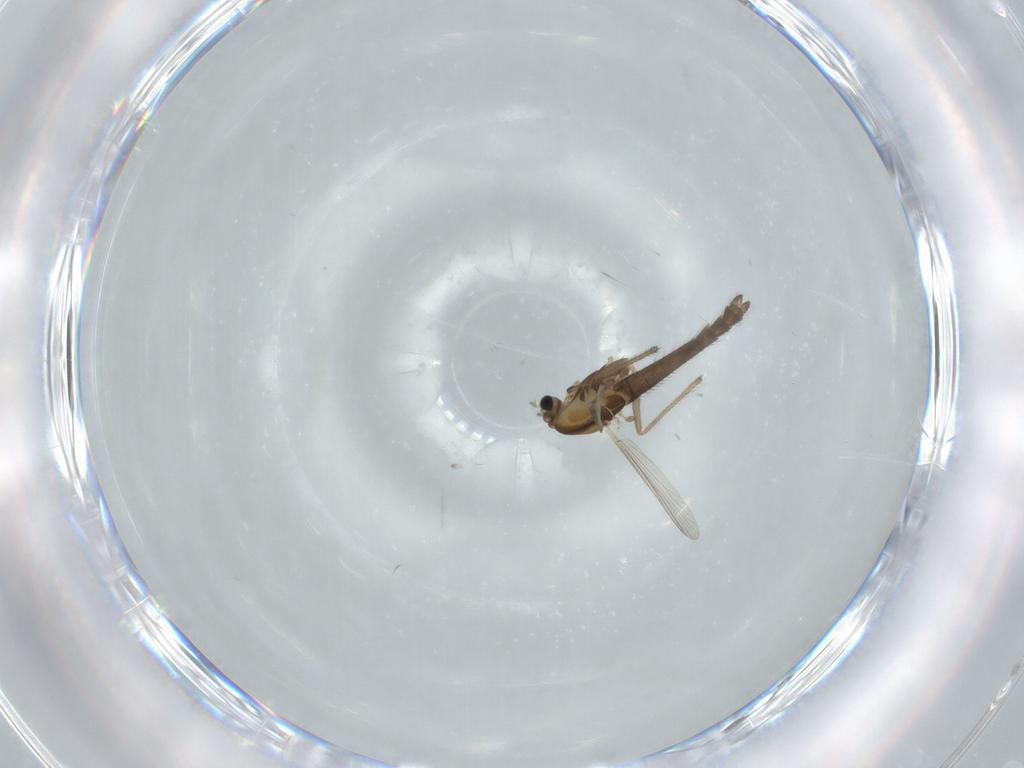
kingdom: Animalia
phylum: Arthropoda
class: Insecta
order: Diptera
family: Chironomidae
